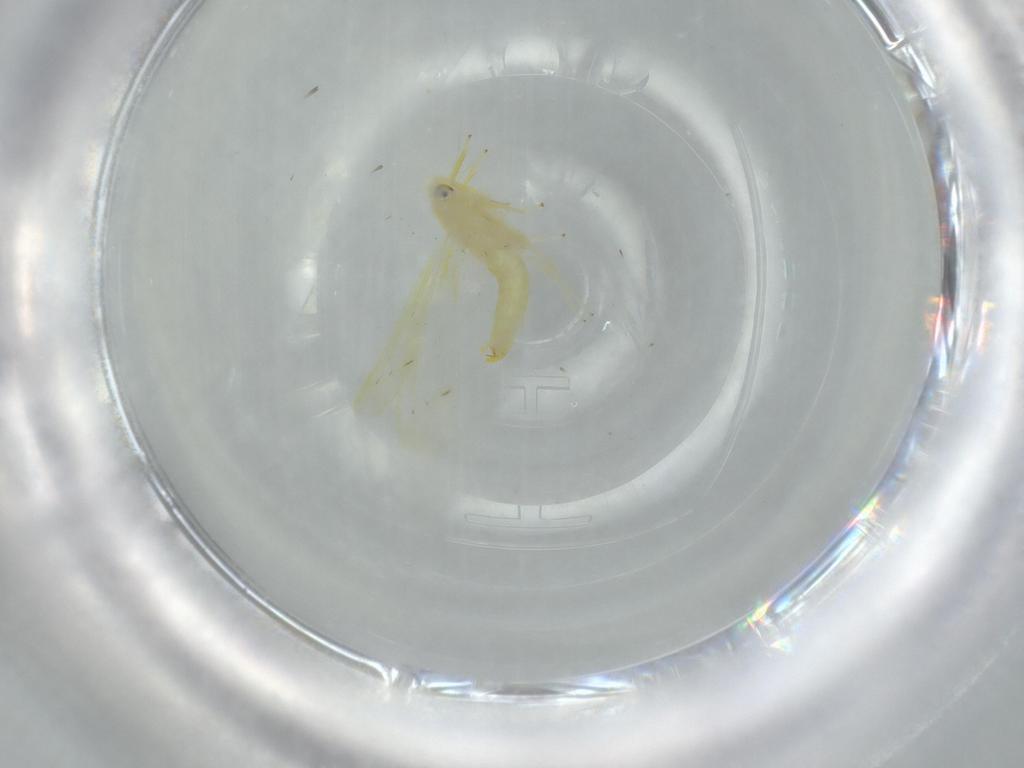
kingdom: Animalia
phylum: Arthropoda
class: Insecta
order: Hemiptera
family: Cicadellidae
